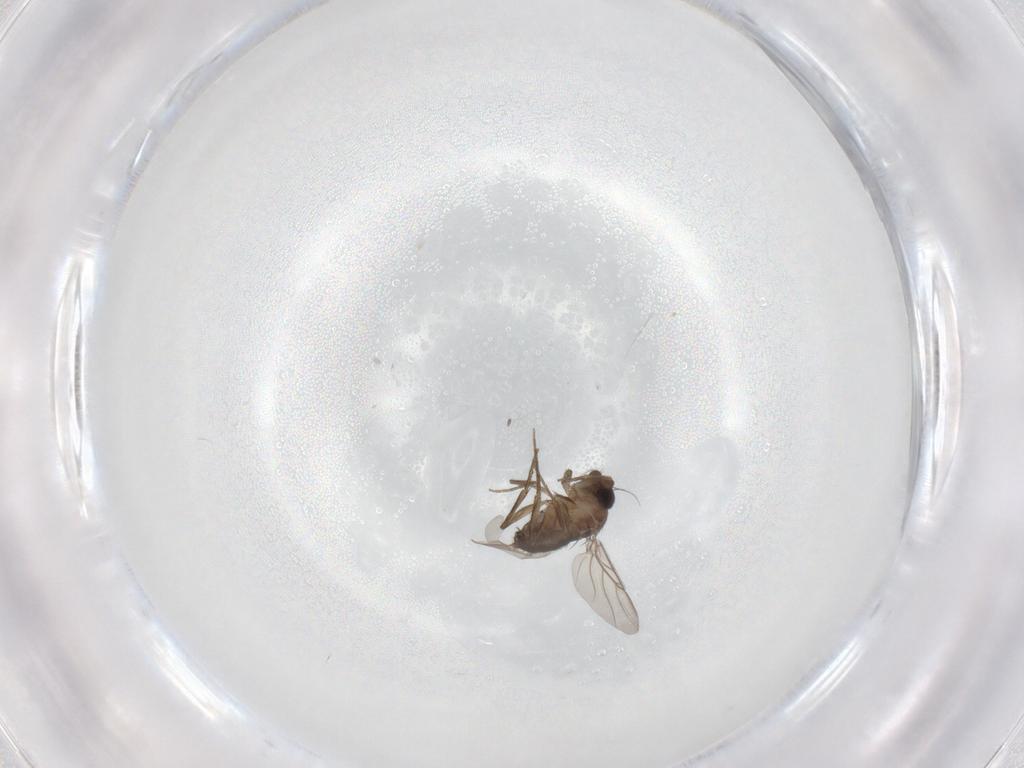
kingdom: Animalia
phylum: Arthropoda
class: Insecta
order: Diptera
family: Phoridae
